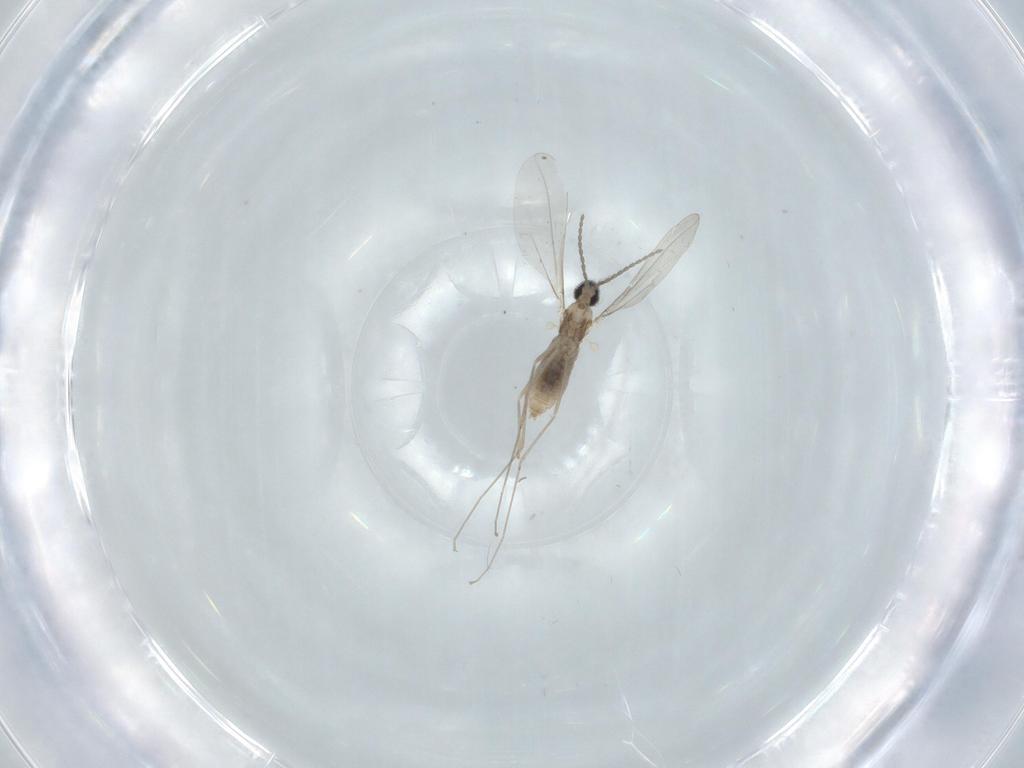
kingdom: Animalia
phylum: Arthropoda
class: Insecta
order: Diptera
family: Cecidomyiidae
